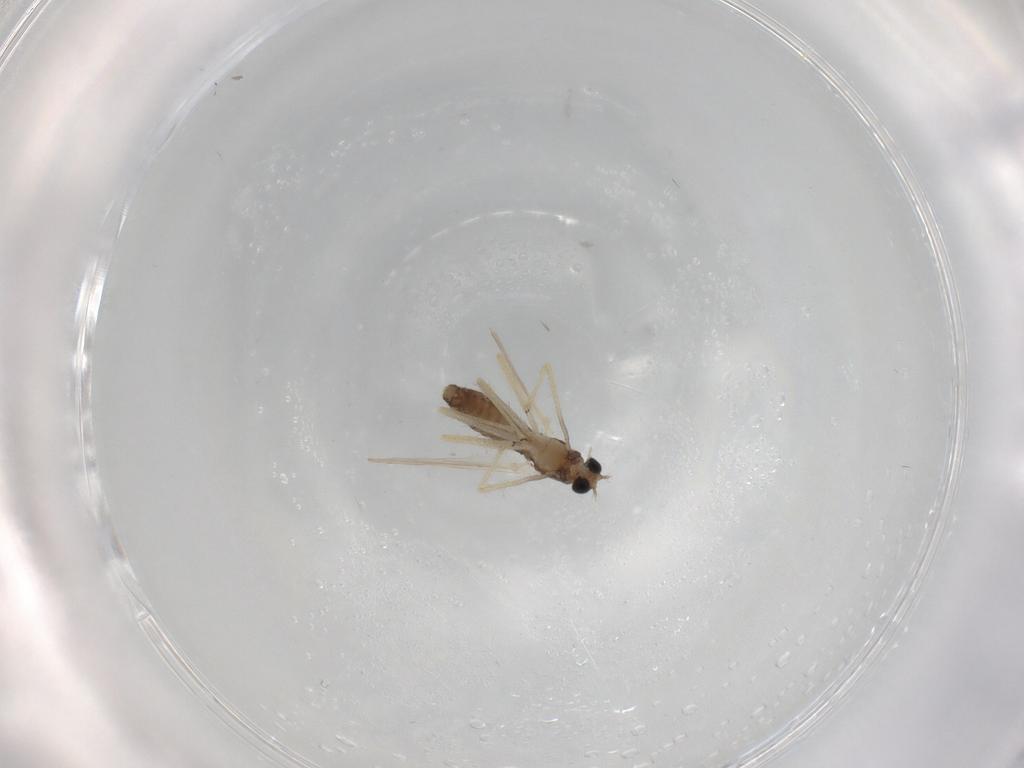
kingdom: Animalia
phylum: Arthropoda
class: Insecta
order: Diptera
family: Chironomidae
